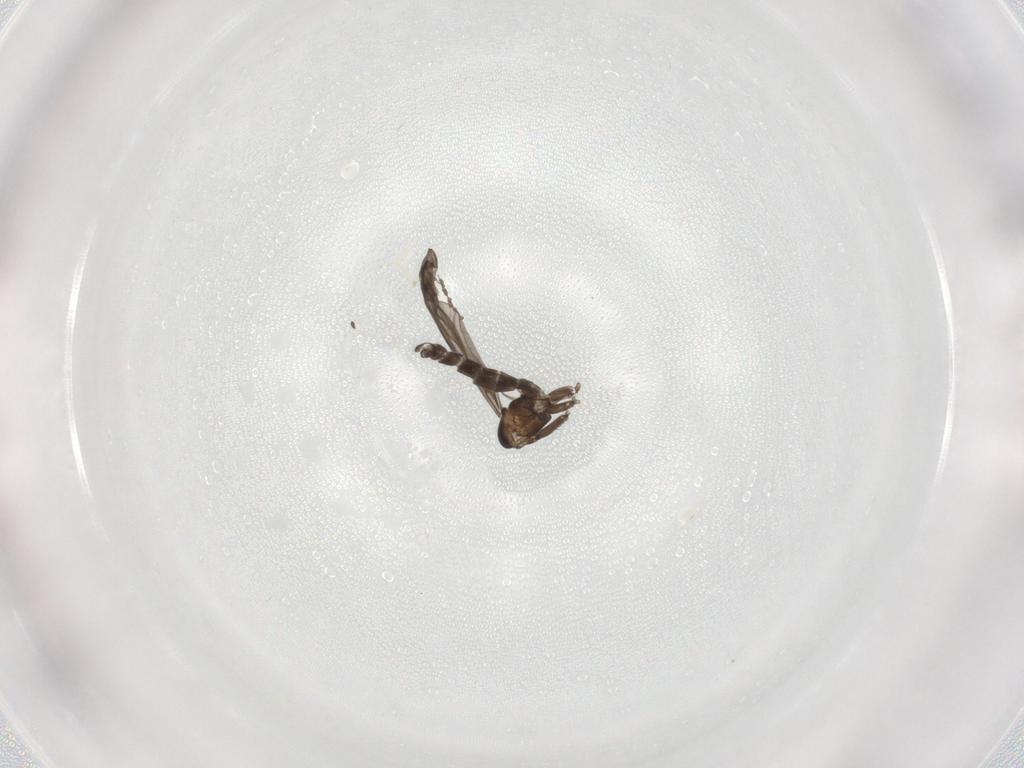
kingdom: Animalia
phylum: Arthropoda
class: Insecta
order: Diptera
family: Sciaridae
